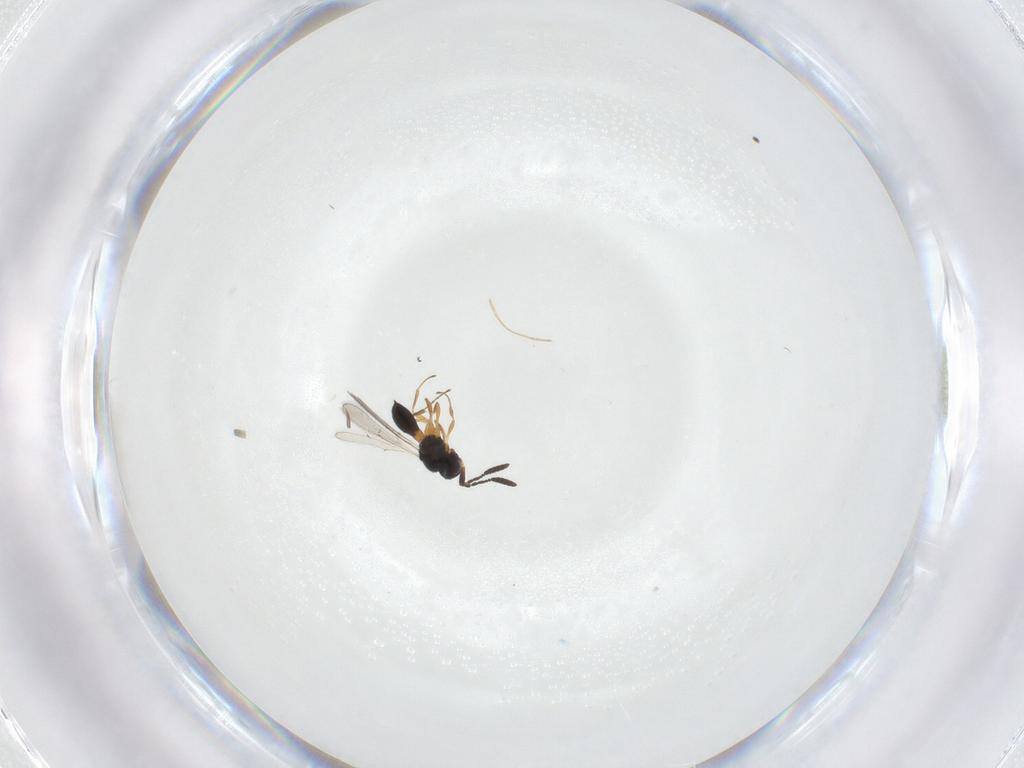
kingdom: Animalia
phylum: Arthropoda
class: Insecta
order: Hymenoptera
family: Scelionidae
